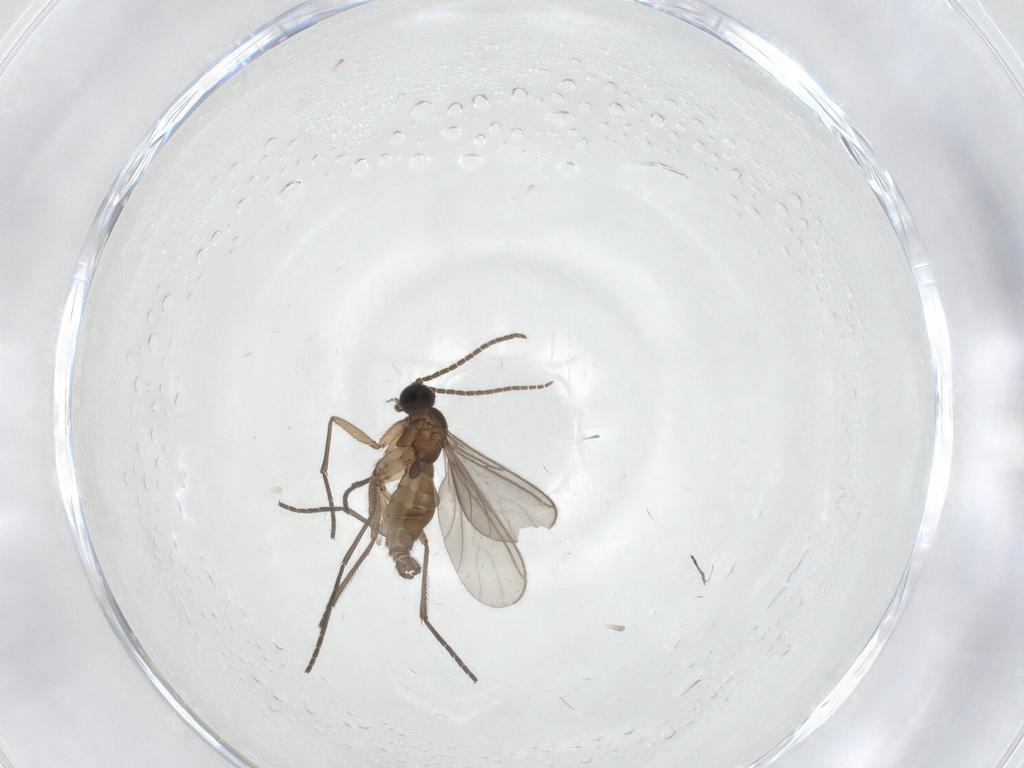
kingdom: Animalia
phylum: Arthropoda
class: Insecta
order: Diptera
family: Sciaridae
